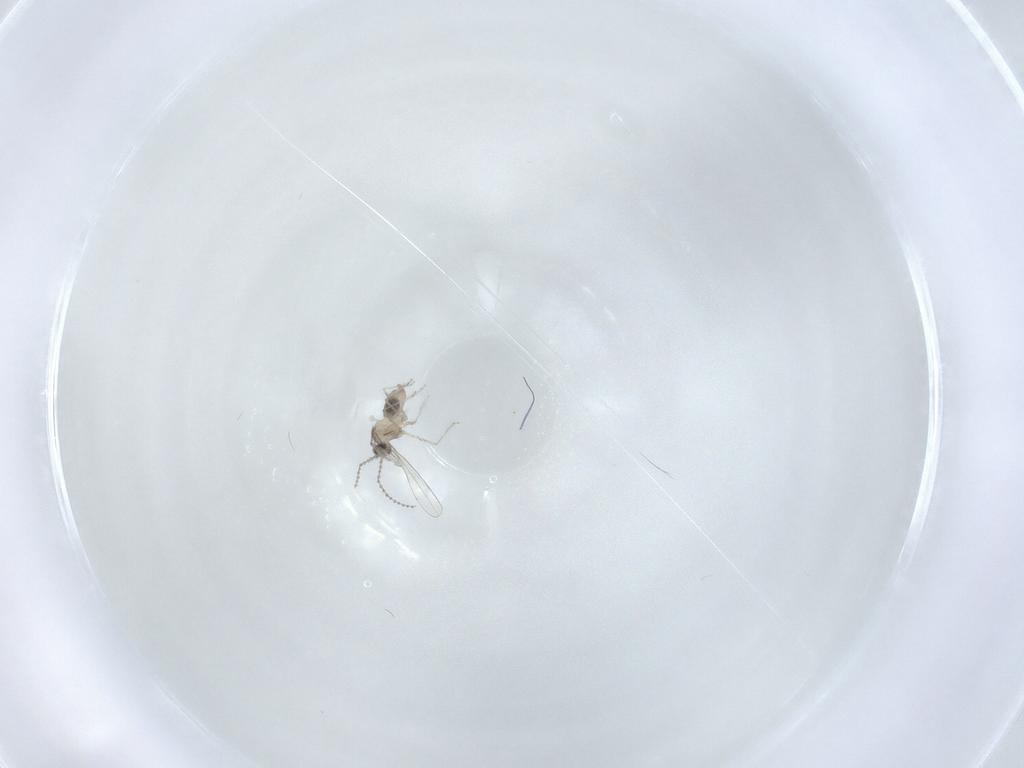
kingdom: Animalia
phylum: Arthropoda
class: Insecta
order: Diptera
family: Cecidomyiidae
